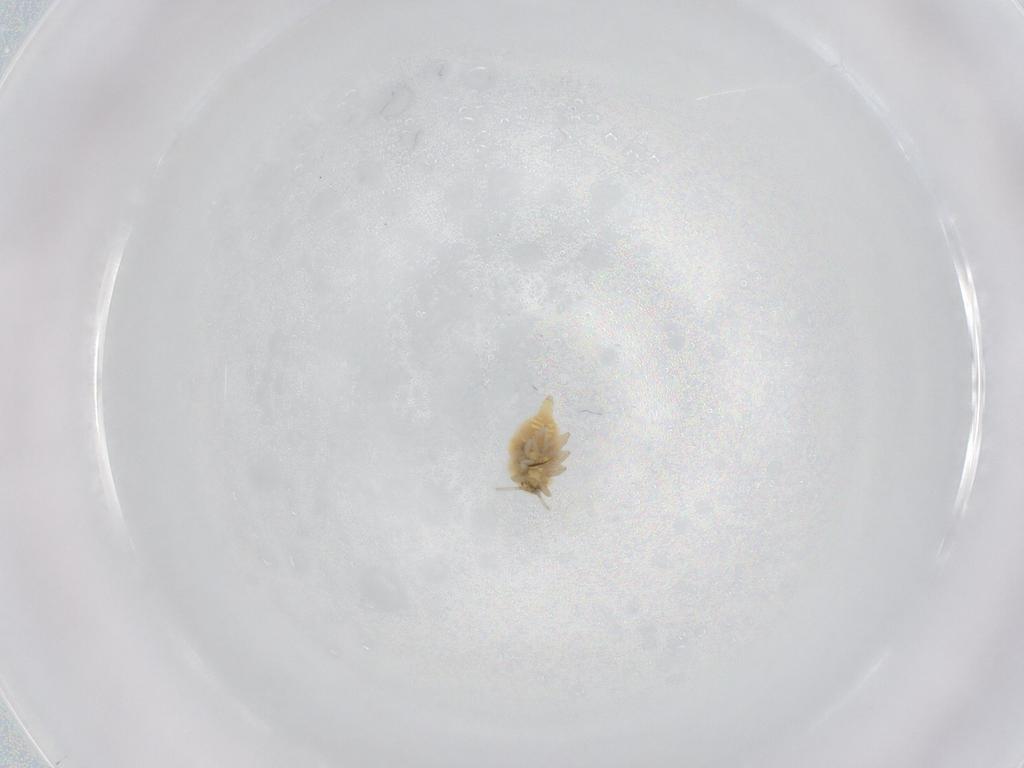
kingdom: Animalia
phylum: Arthropoda
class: Insecta
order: Neuroptera
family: Coniopterygidae
